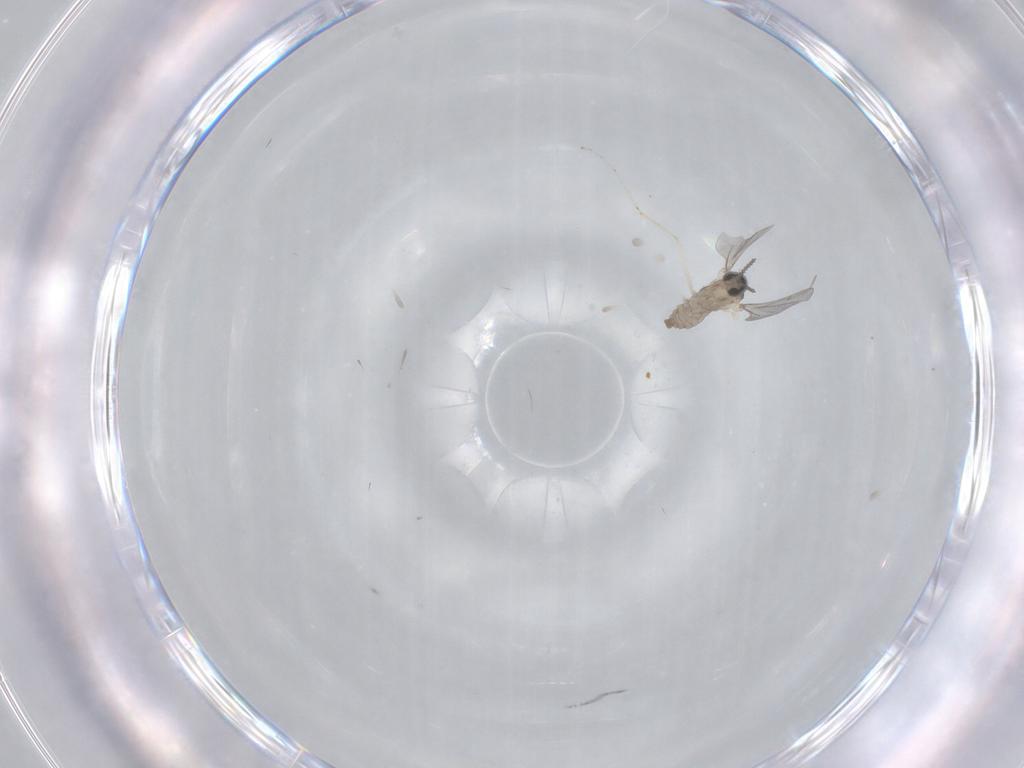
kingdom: Animalia
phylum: Arthropoda
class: Insecta
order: Diptera
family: Cecidomyiidae
